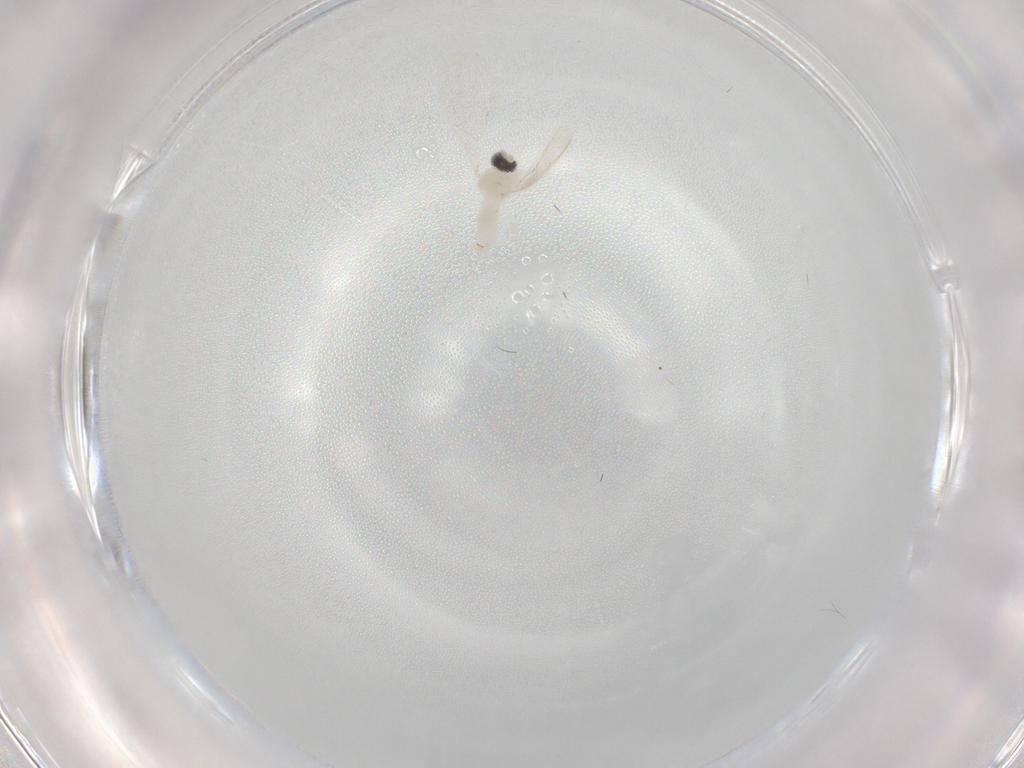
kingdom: Animalia
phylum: Arthropoda
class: Insecta
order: Diptera
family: Cecidomyiidae
